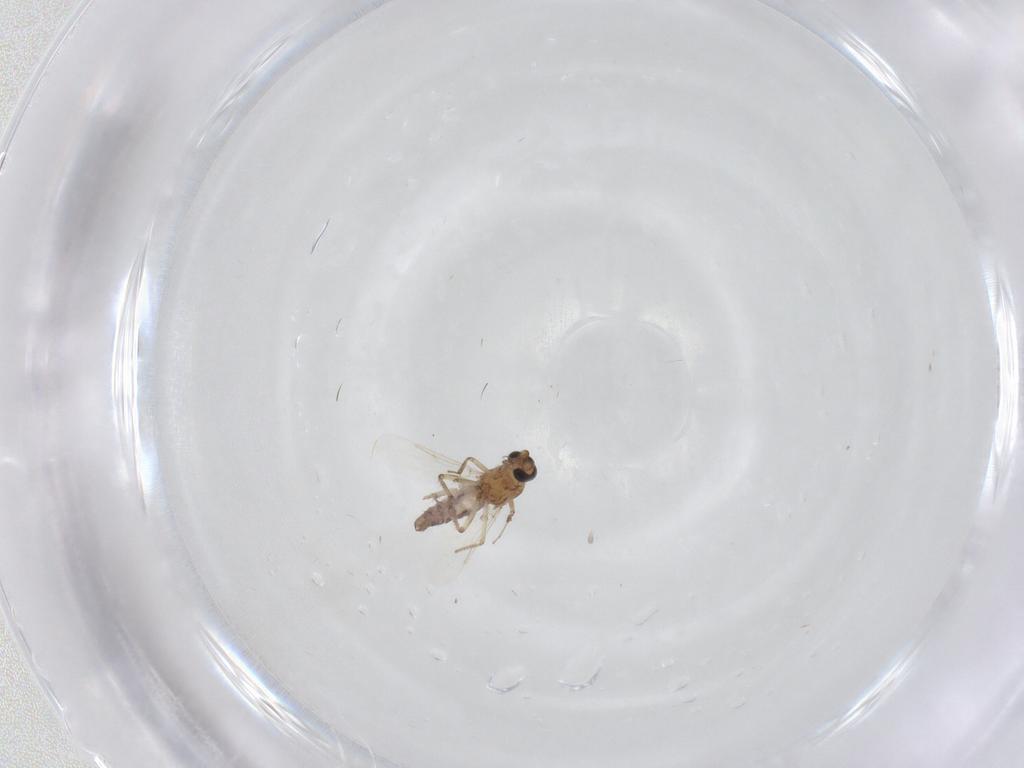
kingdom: Animalia
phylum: Arthropoda
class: Insecta
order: Diptera
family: Ceratopogonidae
